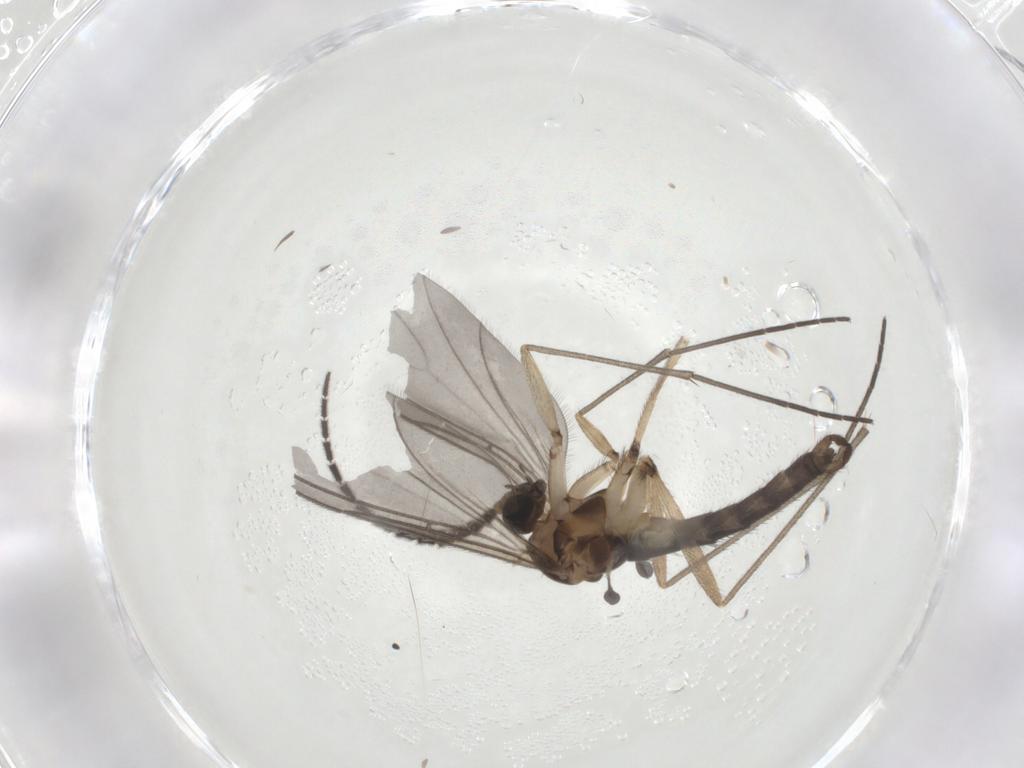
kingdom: Animalia
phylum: Arthropoda
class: Insecta
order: Diptera
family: Sciaridae
